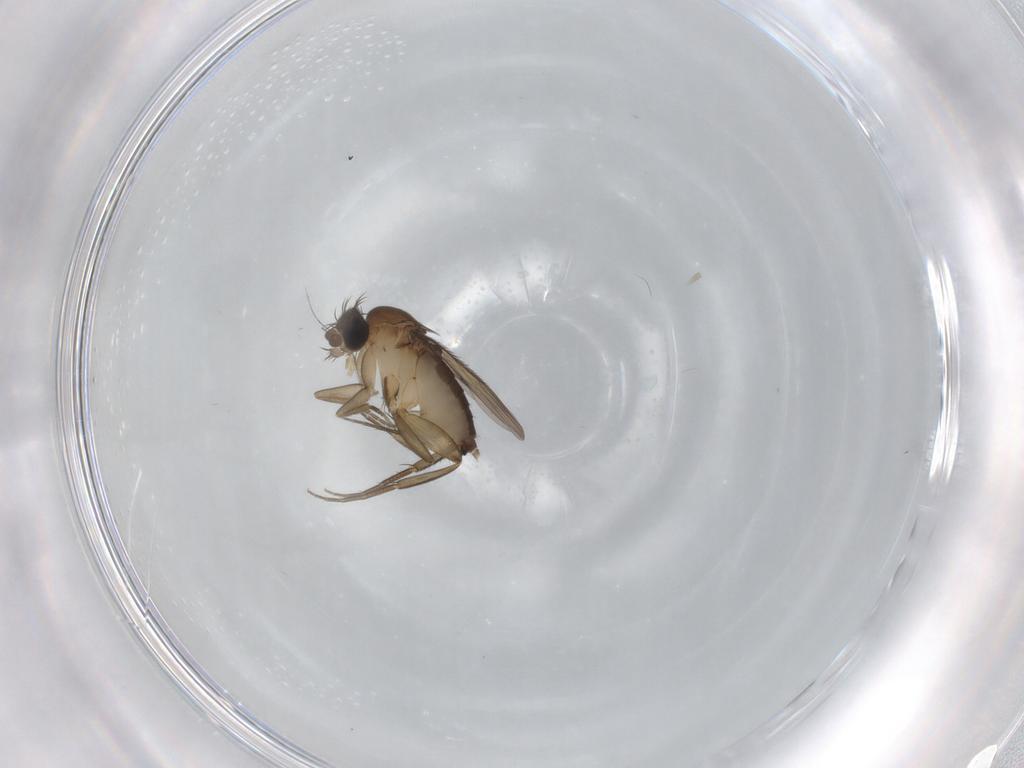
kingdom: Animalia
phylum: Arthropoda
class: Insecta
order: Diptera
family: Phoridae
